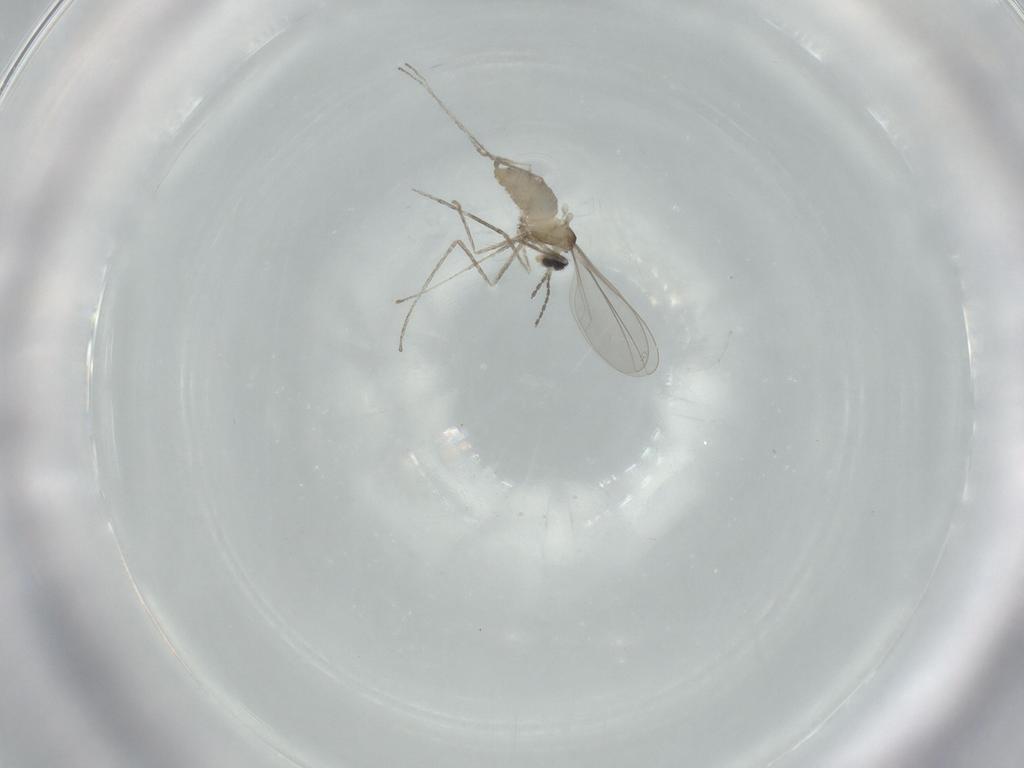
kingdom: Animalia
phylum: Arthropoda
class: Insecta
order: Diptera
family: Cecidomyiidae
